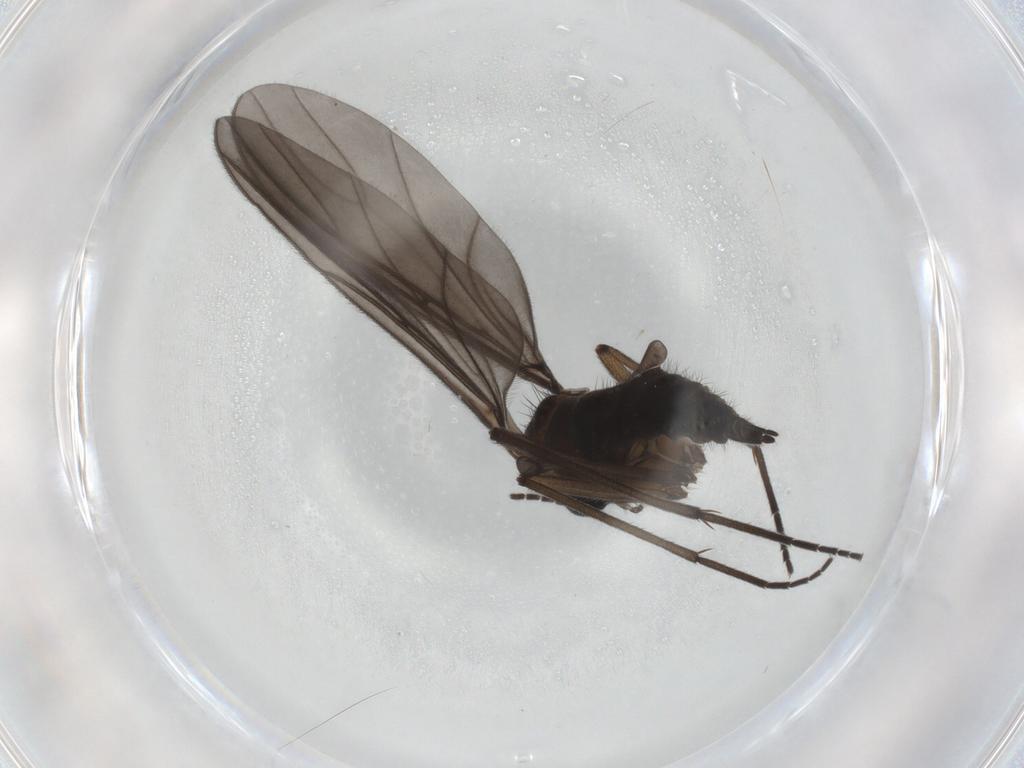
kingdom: Animalia
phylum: Arthropoda
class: Insecta
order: Diptera
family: Sciaridae
